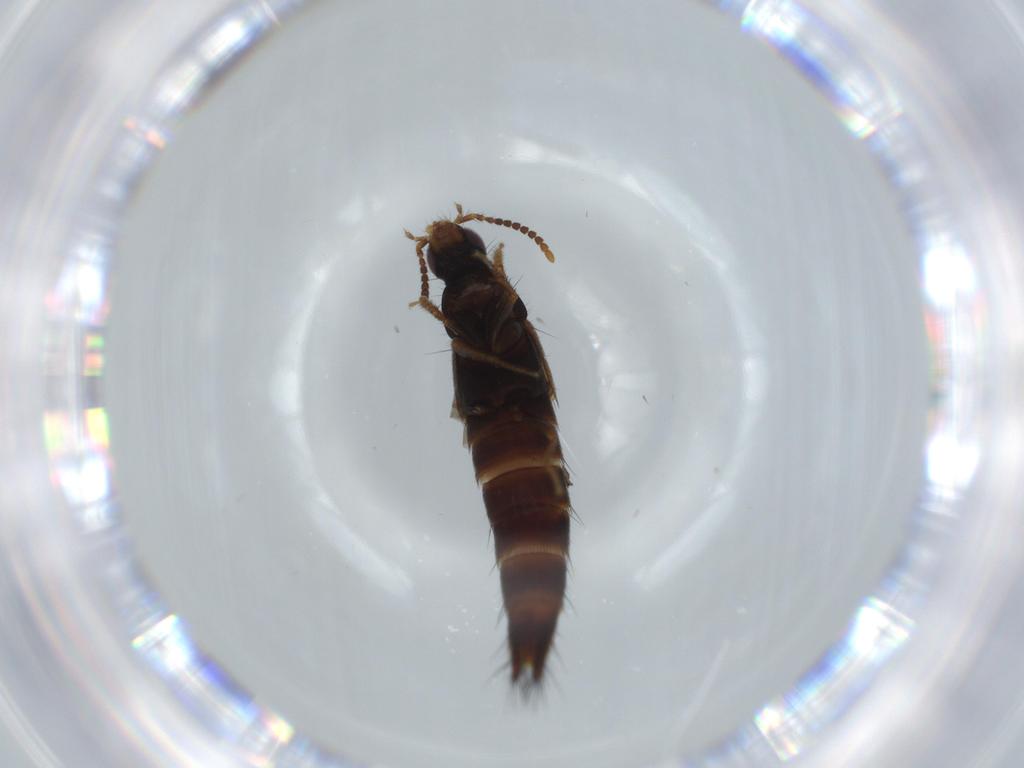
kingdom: Animalia
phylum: Arthropoda
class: Insecta
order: Coleoptera
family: Staphylinidae
